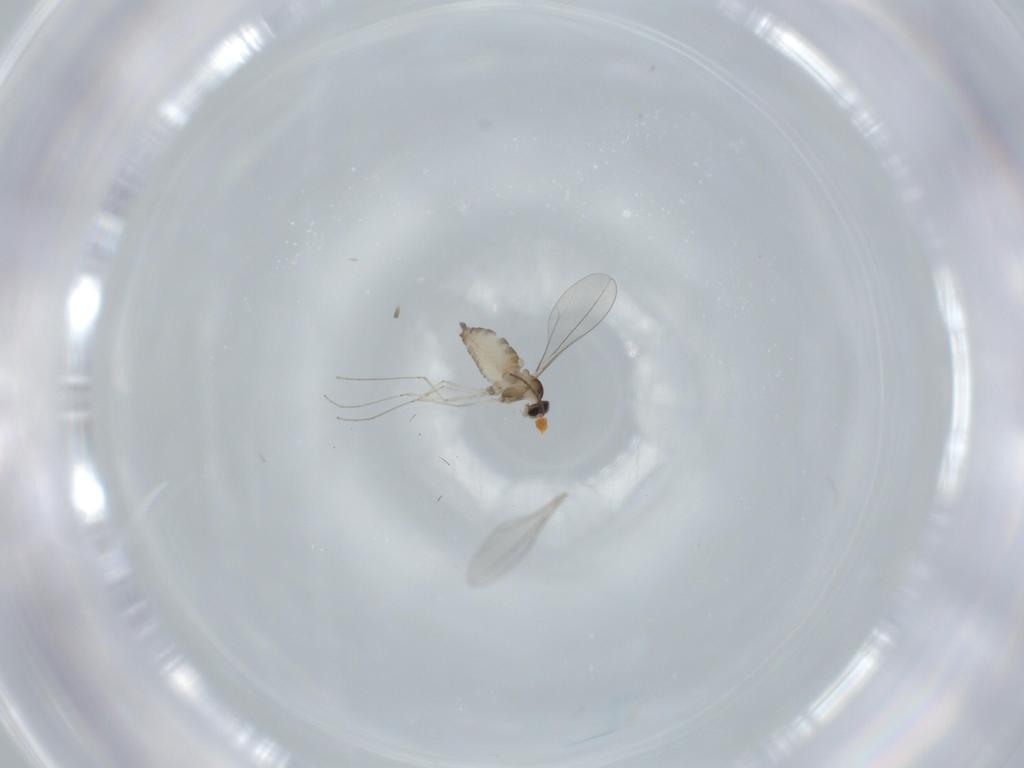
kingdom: Animalia
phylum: Arthropoda
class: Insecta
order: Diptera
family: Cecidomyiidae
